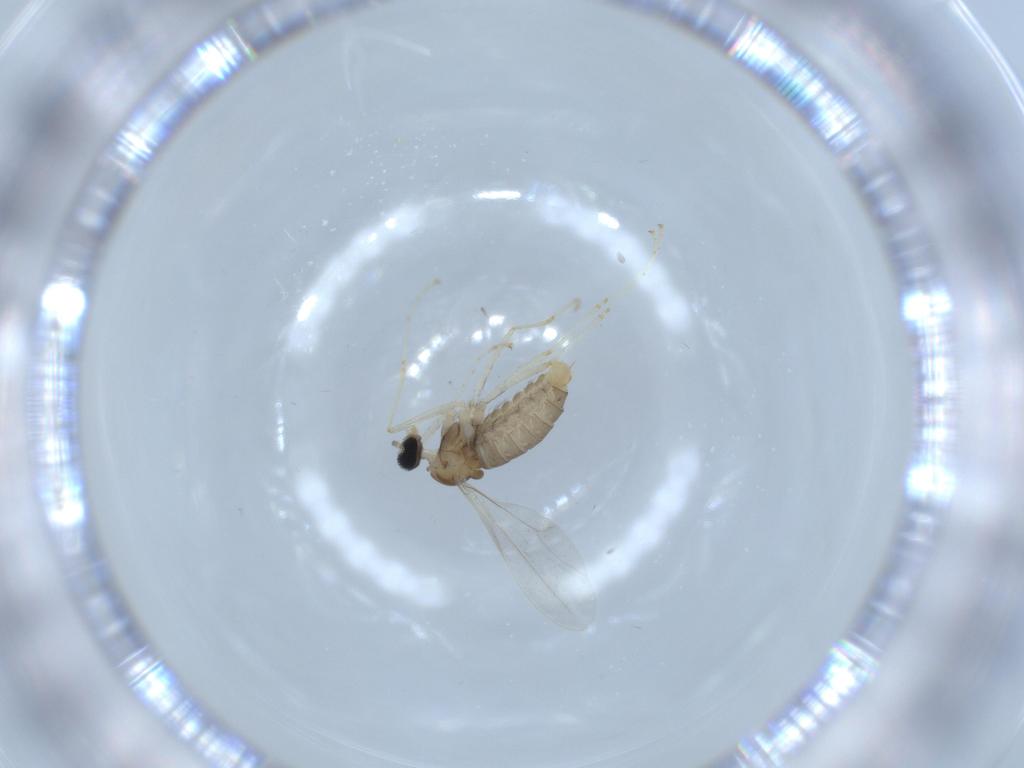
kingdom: Animalia
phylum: Arthropoda
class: Insecta
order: Diptera
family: Cecidomyiidae
